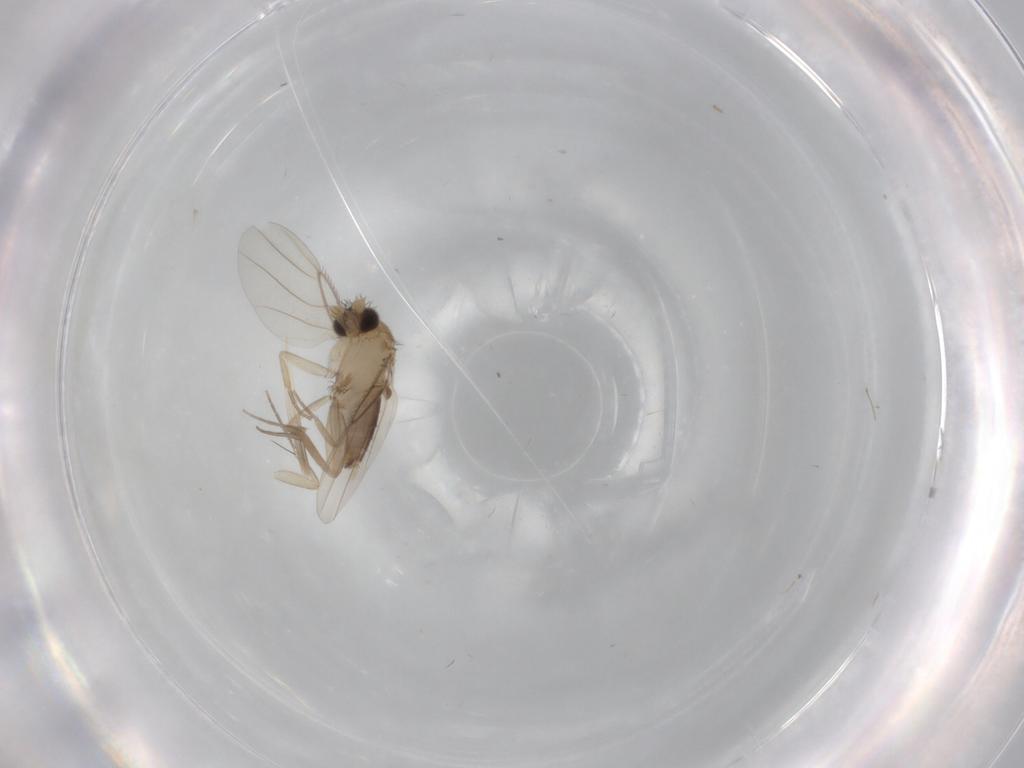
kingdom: Animalia
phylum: Arthropoda
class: Insecta
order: Diptera
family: Phoridae
